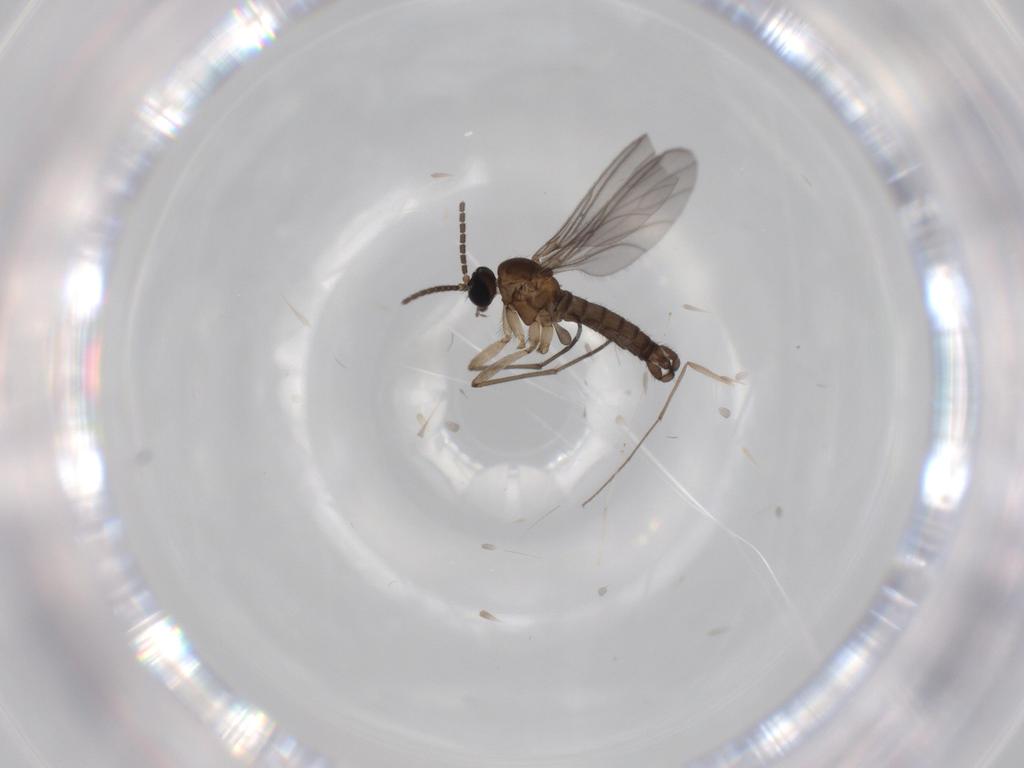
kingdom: Animalia
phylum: Arthropoda
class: Insecta
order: Diptera
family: Chironomidae
